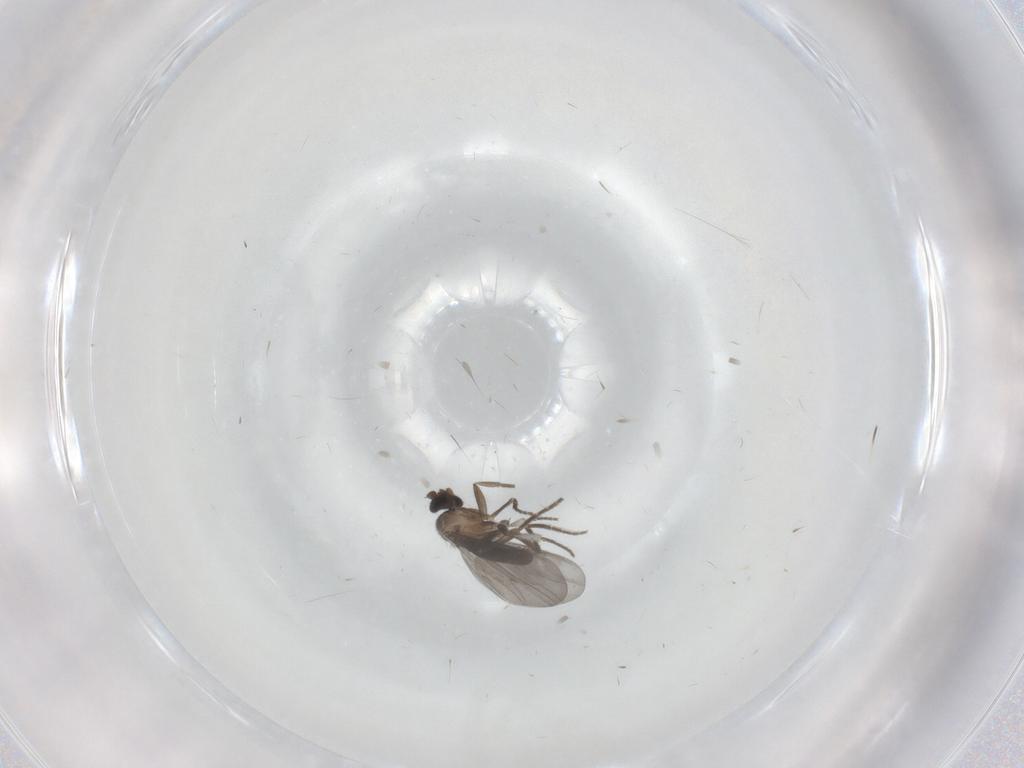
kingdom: Animalia
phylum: Arthropoda
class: Insecta
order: Diptera
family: Phoridae
